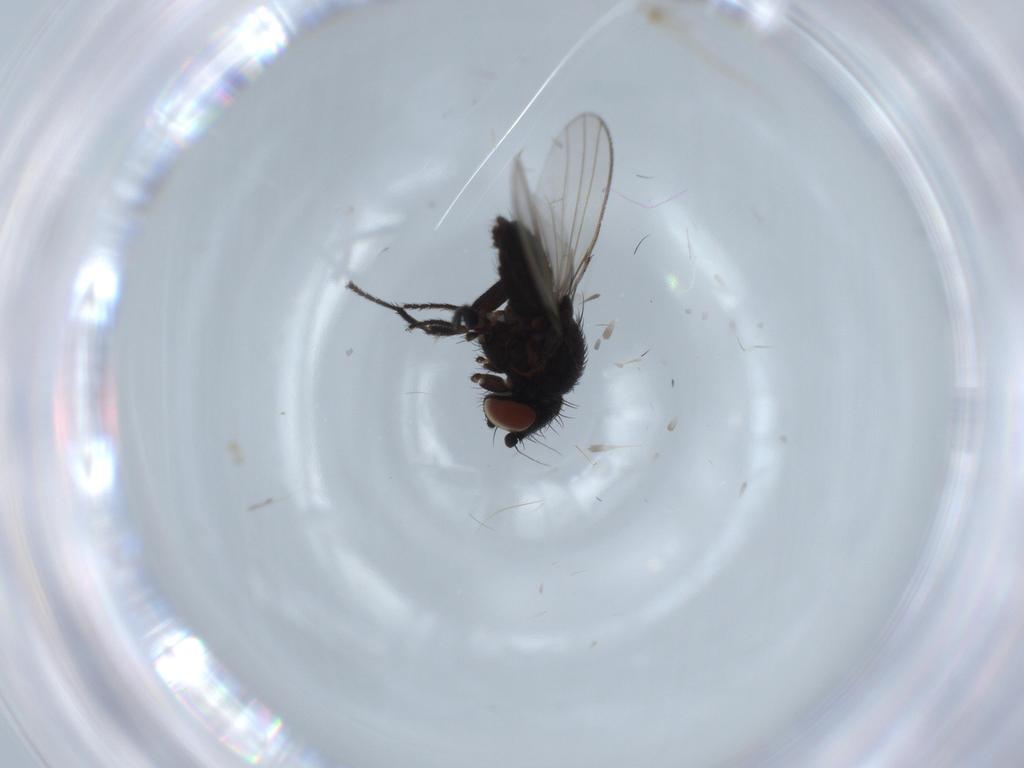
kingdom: Animalia
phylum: Arthropoda
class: Insecta
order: Diptera
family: Milichiidae
